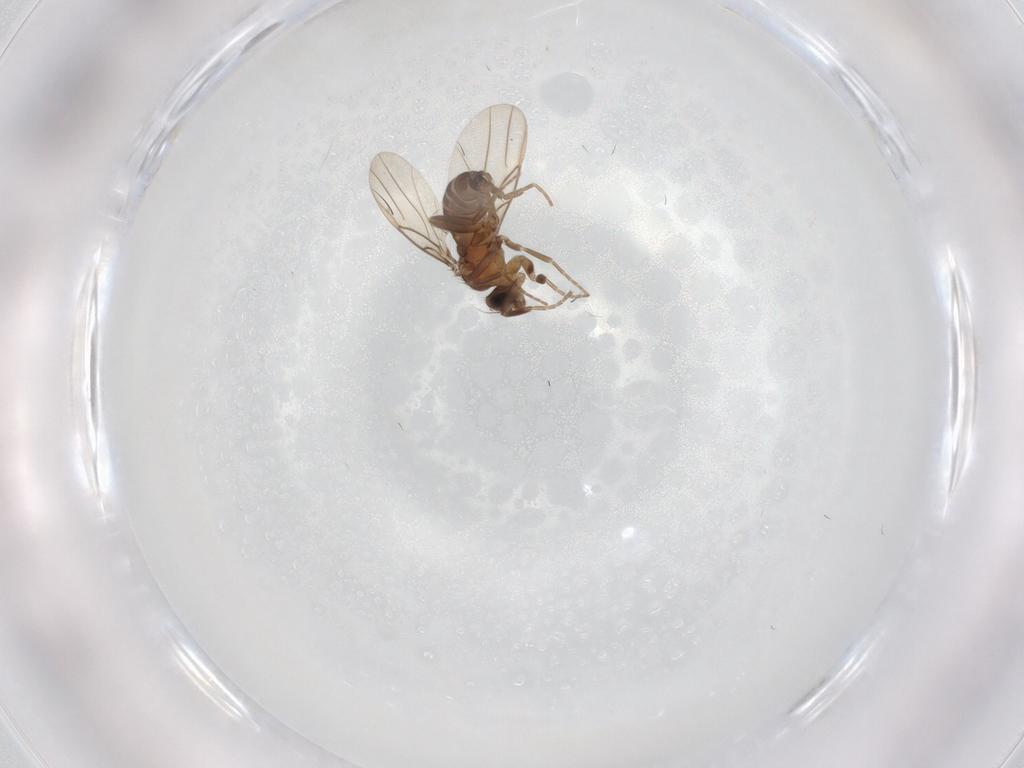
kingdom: Animalia
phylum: Arthropoda
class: Insecta
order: Diptera
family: Phoridae
